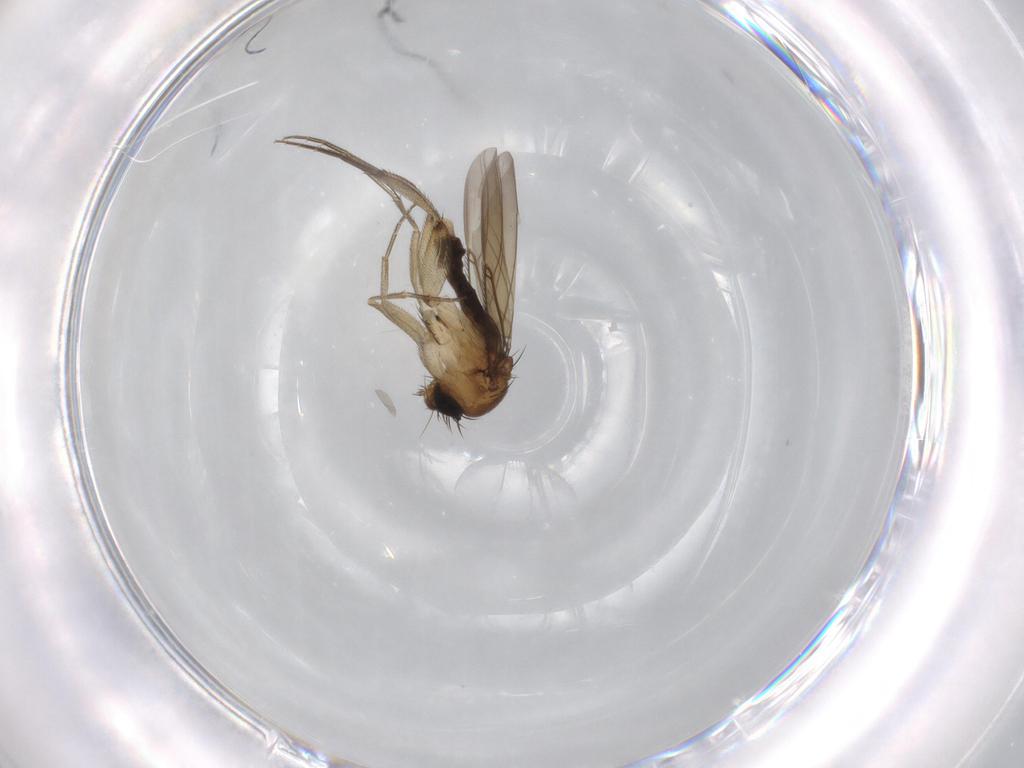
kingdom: Animalia
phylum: Arthropoda
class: Insecta
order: Diptera
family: Phoridae
